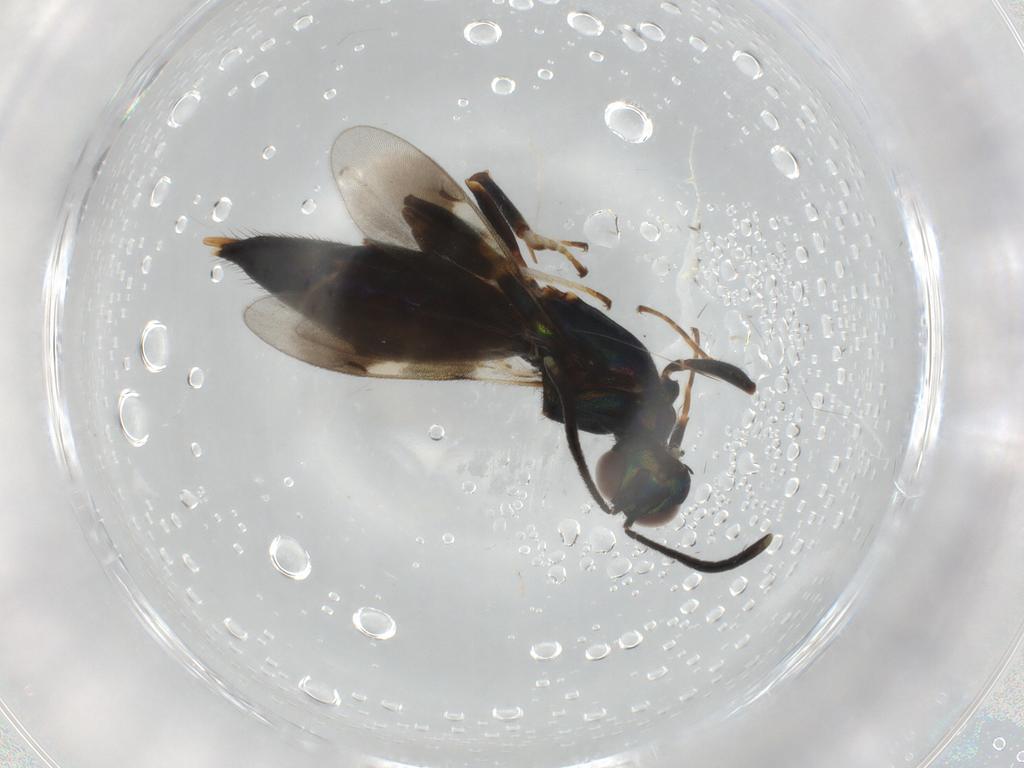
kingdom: Animalia
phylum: Arthropoda
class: Insecta
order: Hymenoptera
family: Eupelmidae
